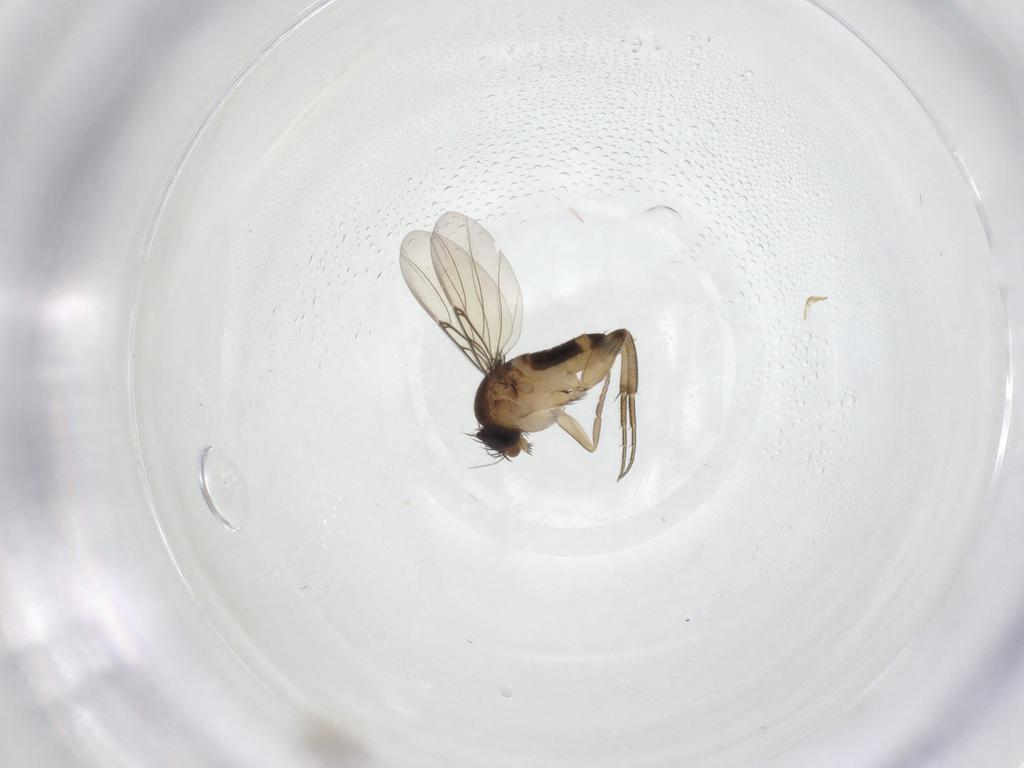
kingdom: Animalia
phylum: Arthropoda
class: Insecta
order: Diptera
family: Phoridae
